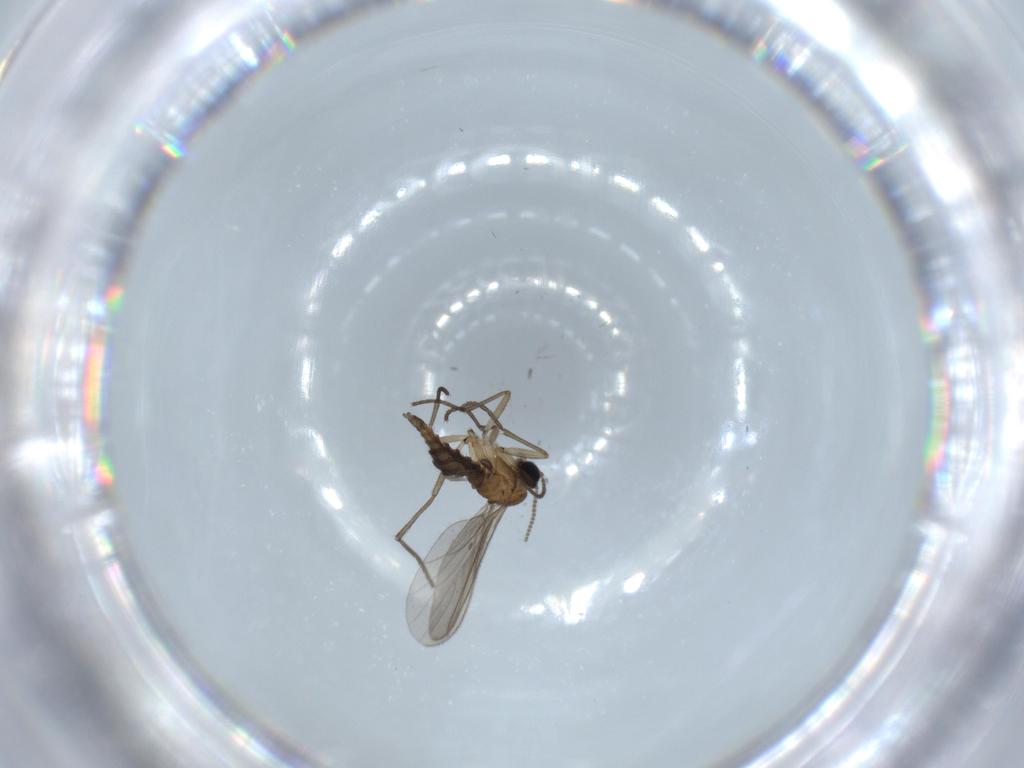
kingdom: Animalia
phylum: Arthropoda
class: Insecta
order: Diptera
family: Sciaridae
